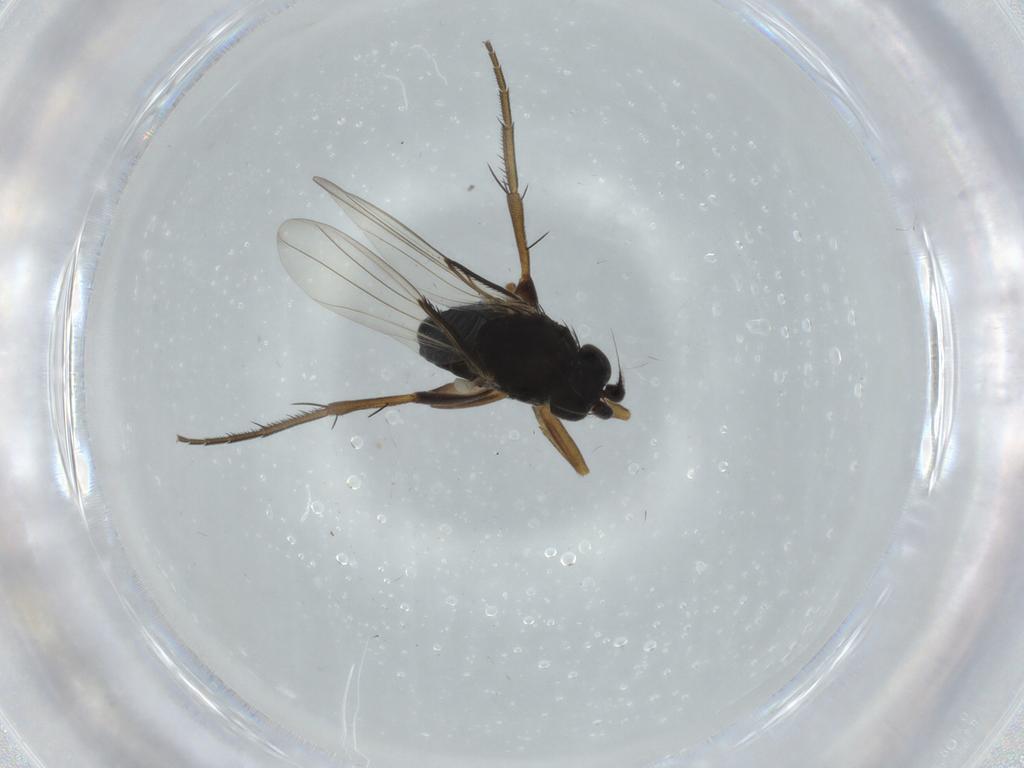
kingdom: Animalia
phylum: Arthropoda
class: Insecta
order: Diptera
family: Phoridae
